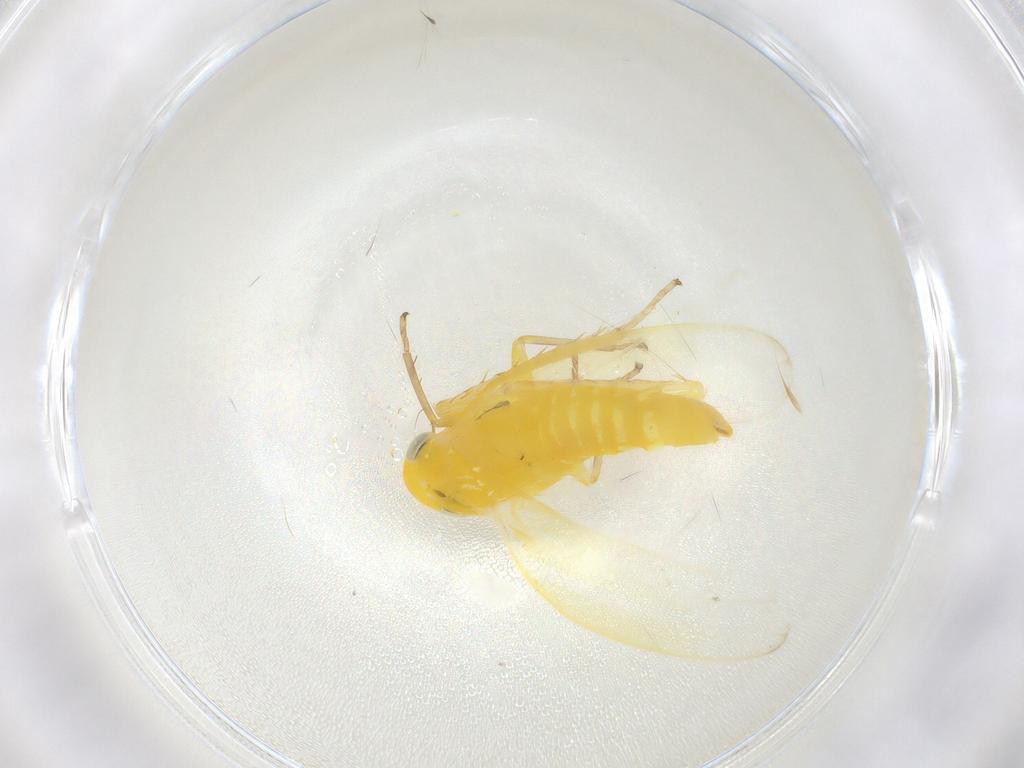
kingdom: Animalia
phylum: Arthropoda
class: Insecta
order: Hemiptera
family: Cicadellidae
